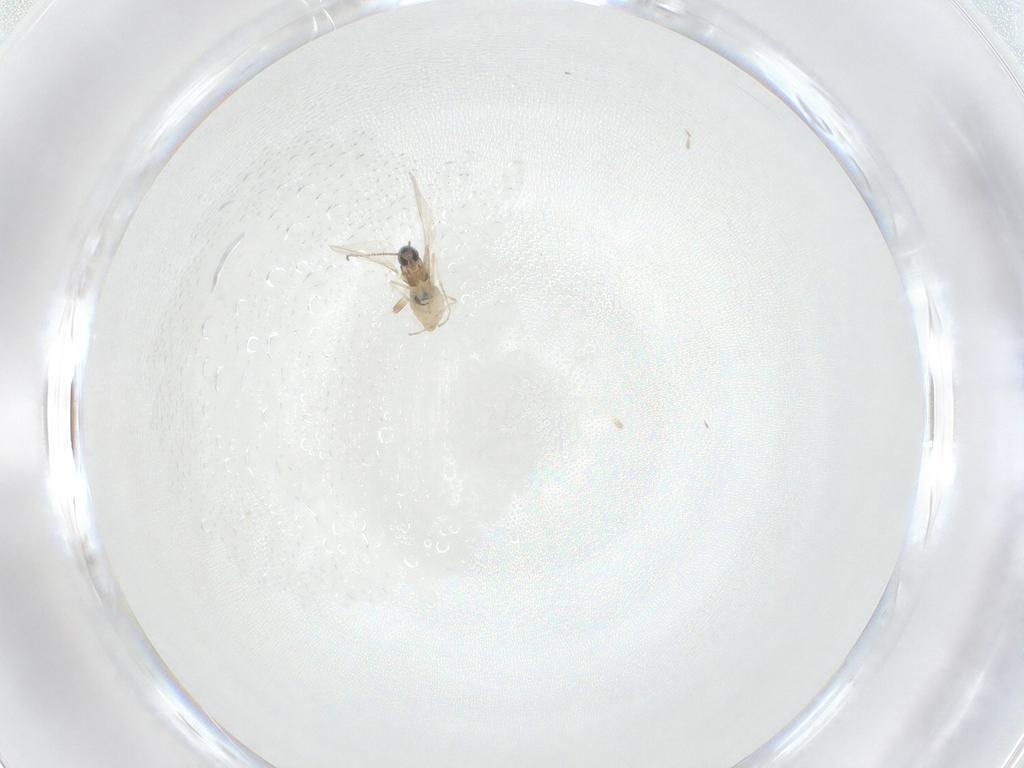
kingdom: Animalia
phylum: Arthropoda
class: Insecta
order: Diptera
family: Cecidomyiidae
